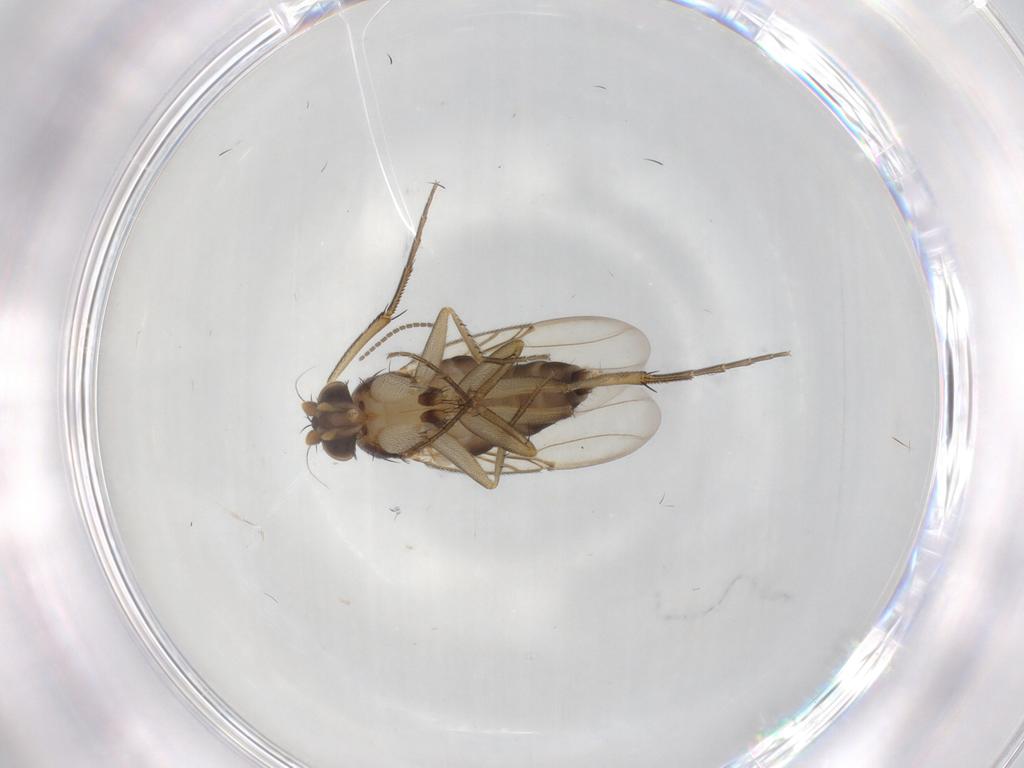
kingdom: Animalia
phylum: Arthropoda
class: Insecta
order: Diptera
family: Phoridae
